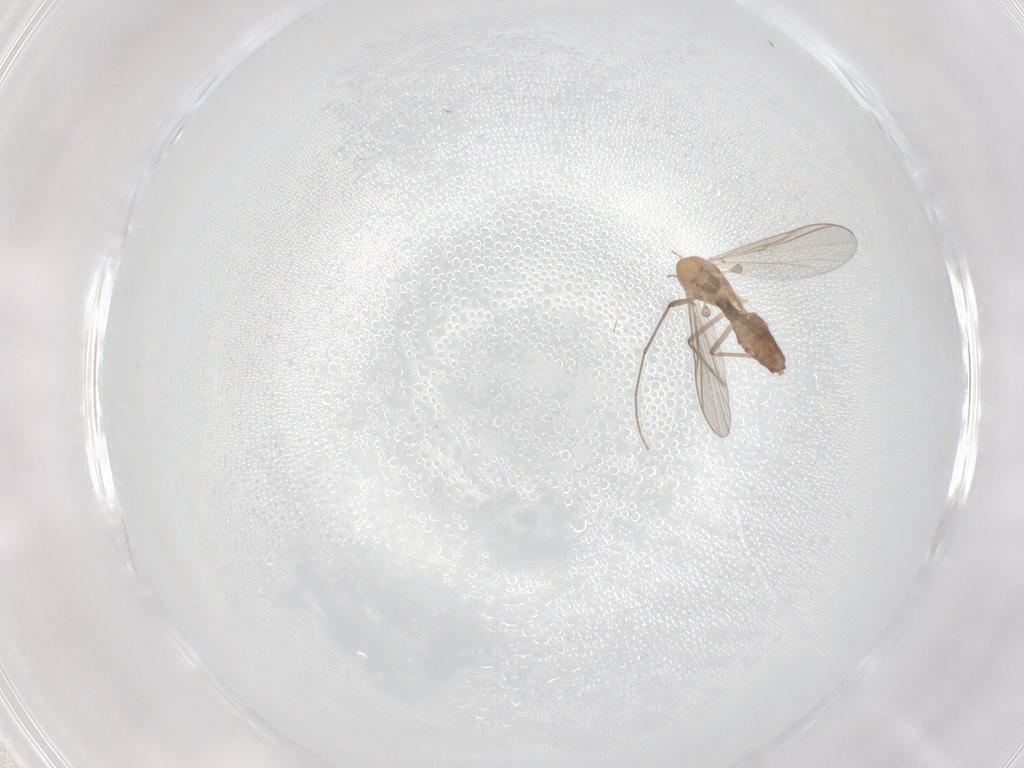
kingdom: Animalia
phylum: Arthropoda
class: Insecta
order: Diptera
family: Chironomidae
